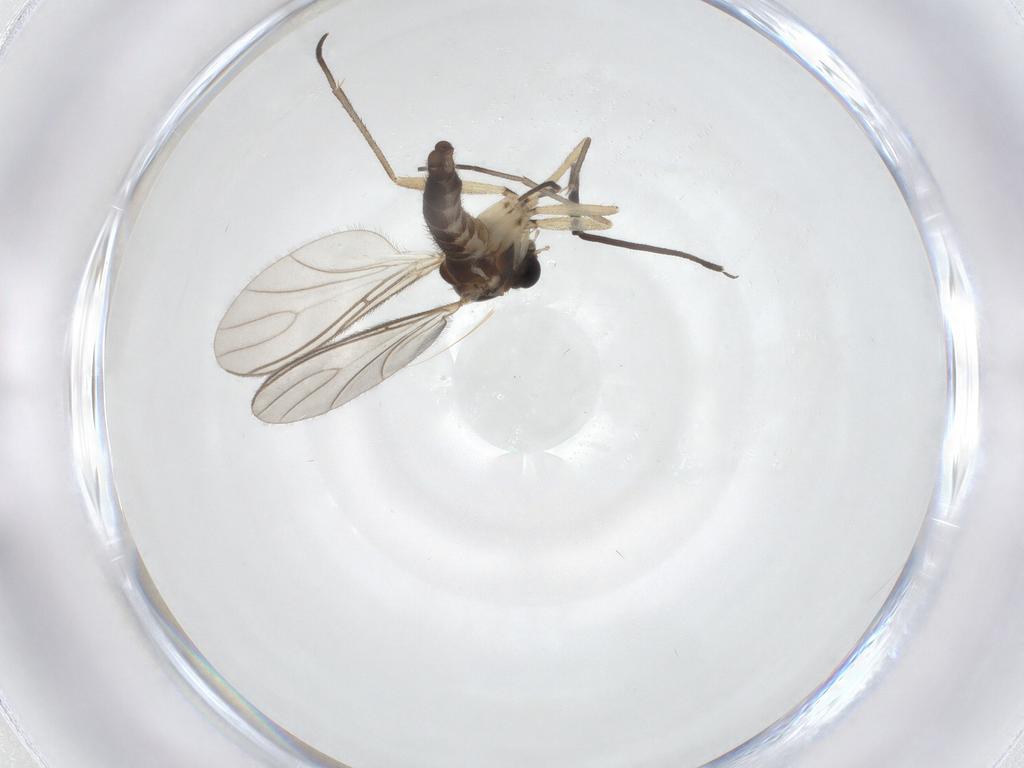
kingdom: Animalia
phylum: Arthropoda
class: Insecta
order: Diptera
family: Sciaridae
